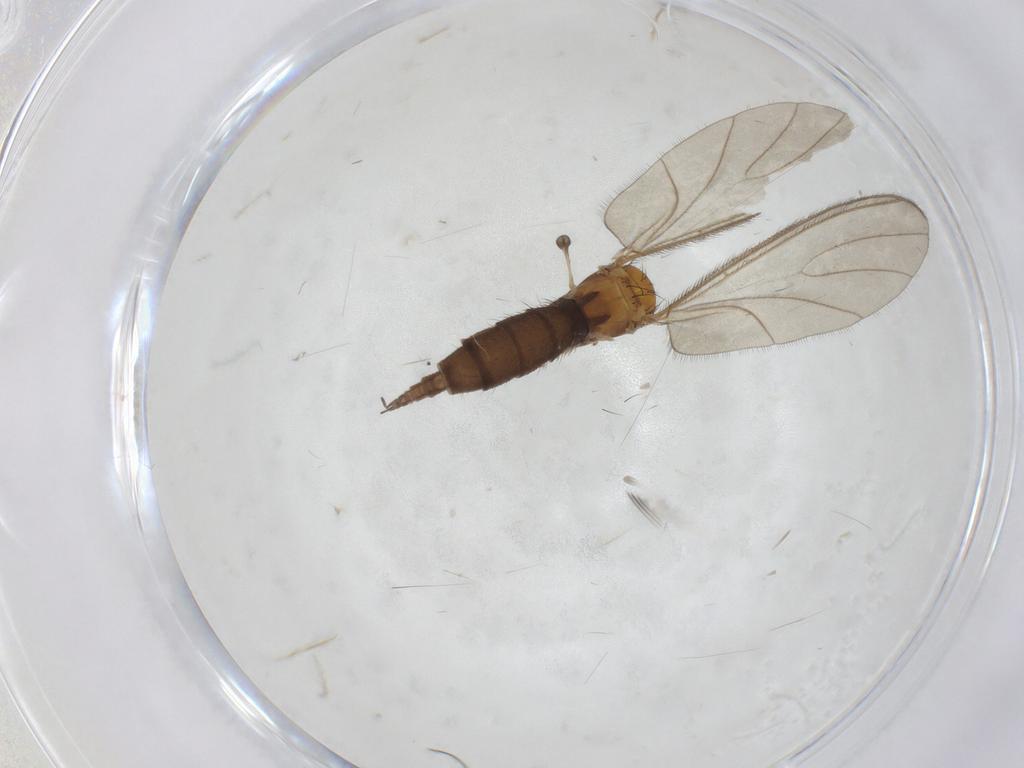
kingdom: Animalia
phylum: Arthropoda
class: Insecta
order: Diptera
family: Sciaridae
